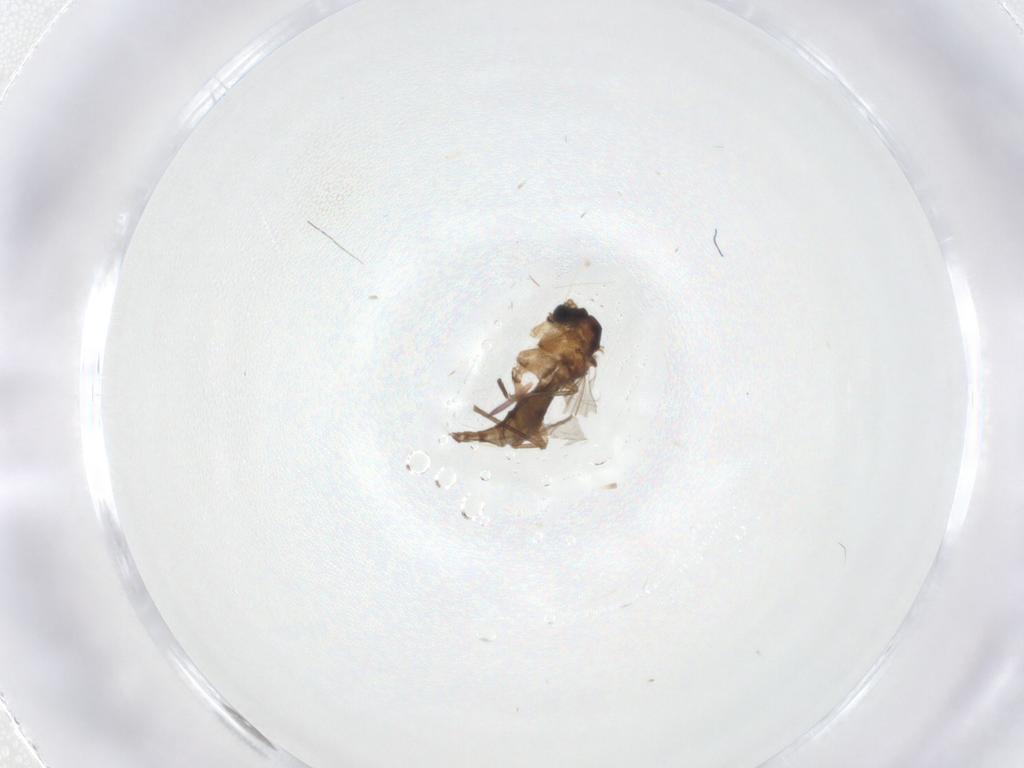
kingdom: Animalia
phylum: Arthropoda
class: Insecta
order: Diptera
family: Sciaridae
